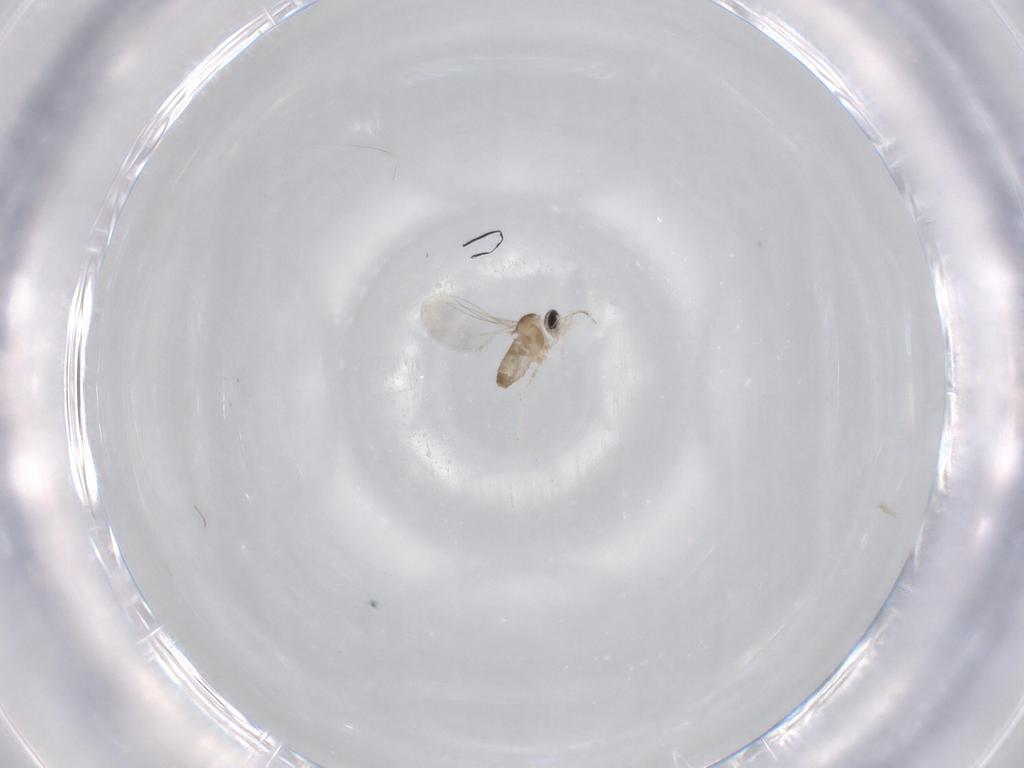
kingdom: Animalia
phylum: Arthropoda
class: Insecta
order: Diptera
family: Cecidomyiidae
